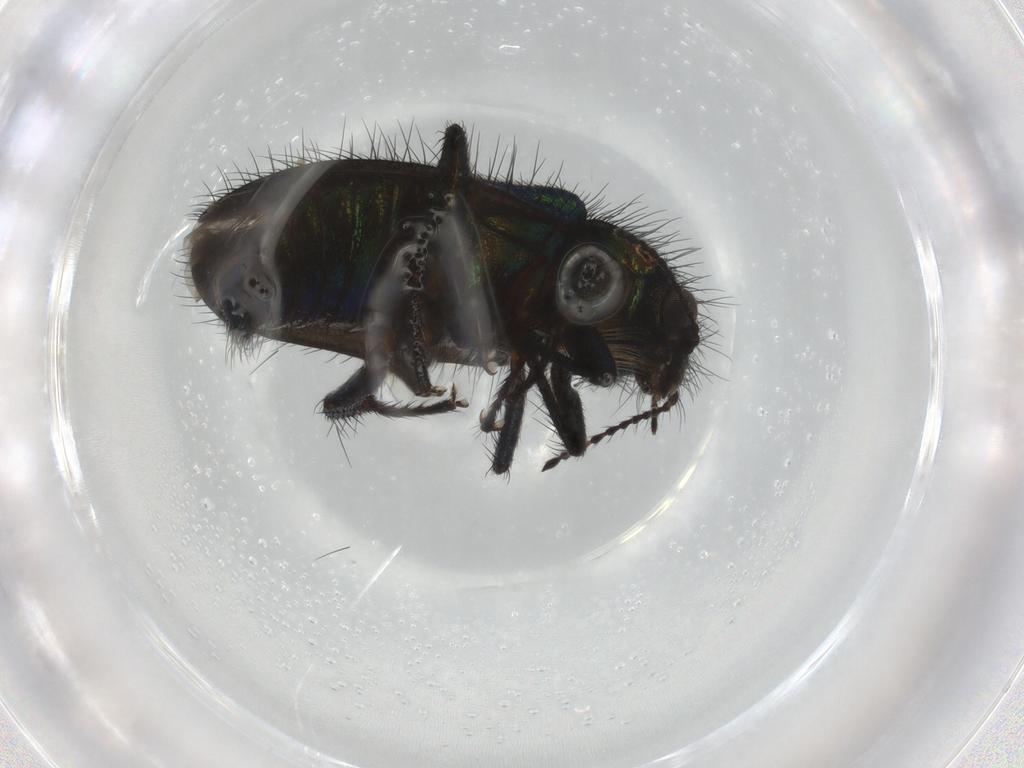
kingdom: Animalia
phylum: Arthropoda
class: Insecta
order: Coleoptera
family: Melyridae
